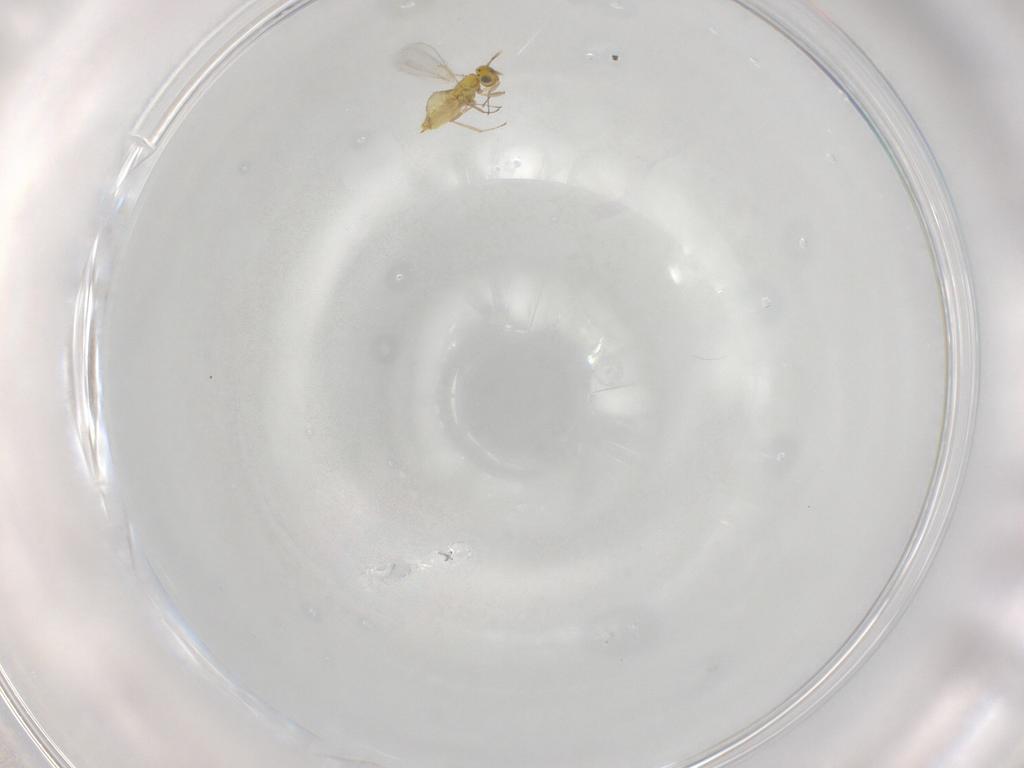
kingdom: Animalia
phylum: Arthropoda
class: Insecta
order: Hymenoptera
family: Aphelinidae
